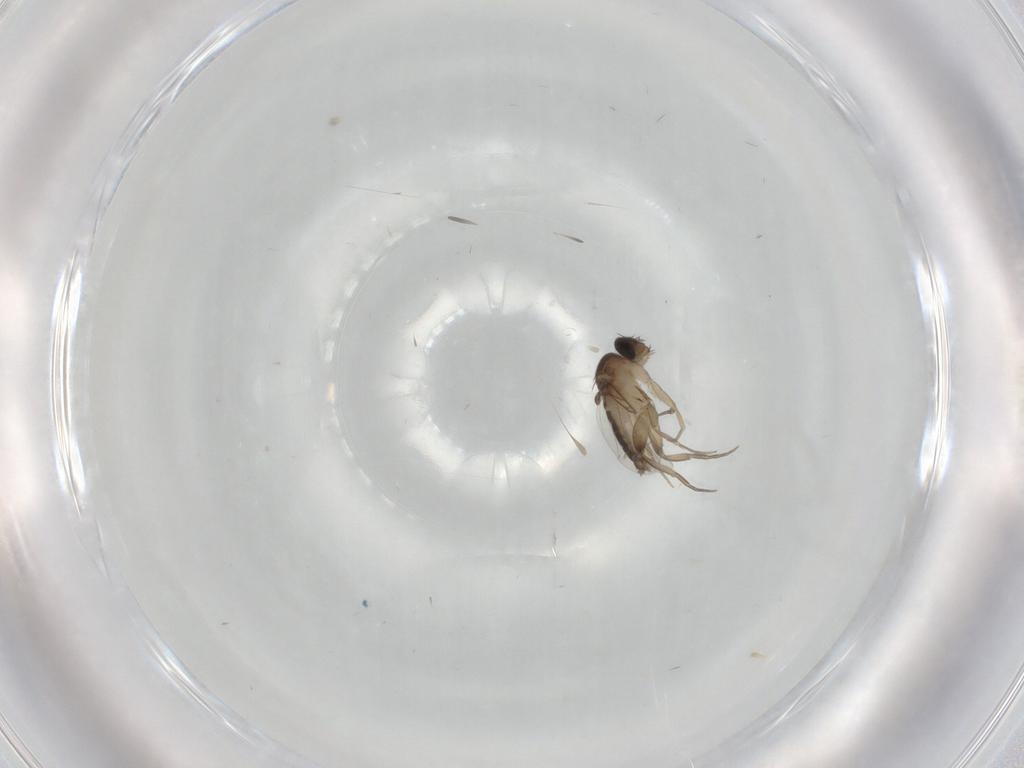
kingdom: Animalia
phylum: Arthropoda
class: Insecta
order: Diptera
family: Phoridae
